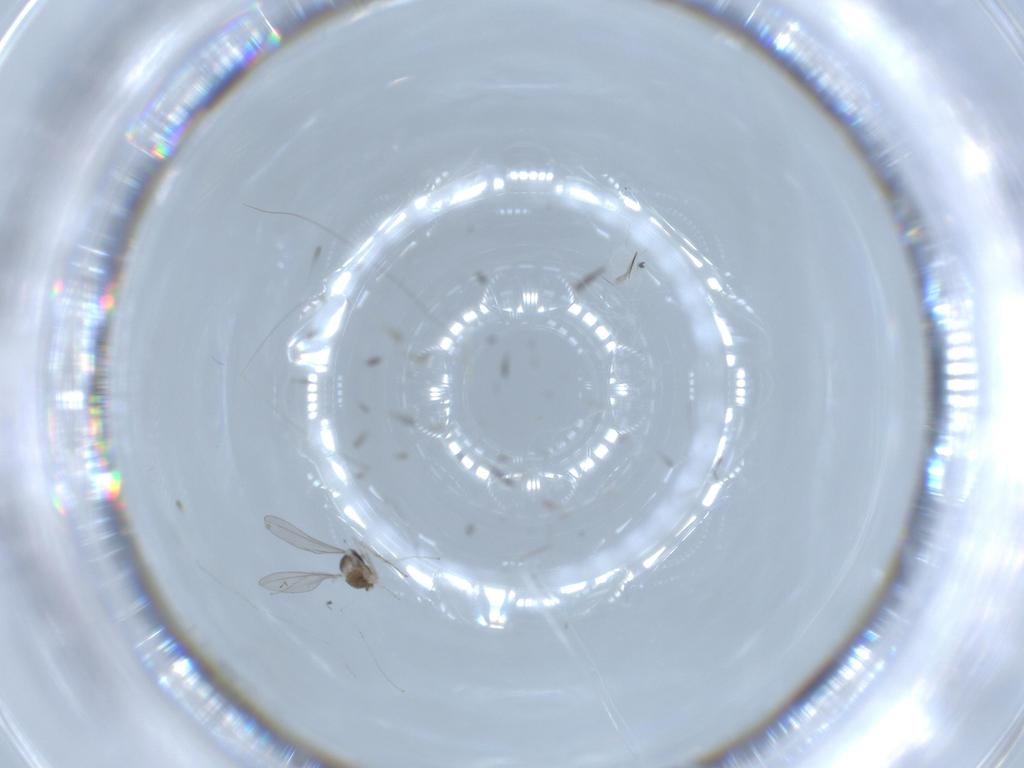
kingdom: Animalia
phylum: Arthropoda
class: Insecta
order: Diptera
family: Cecidomyiidae
